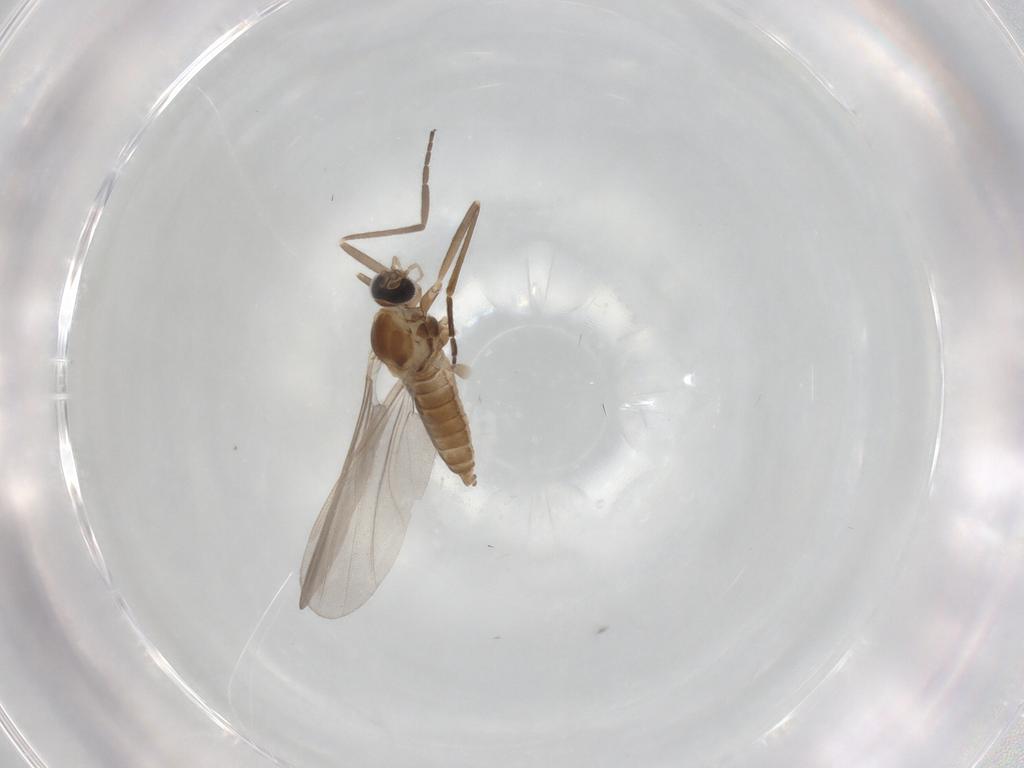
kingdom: Animalia
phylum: Arthropoda
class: Insecta
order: Diptera
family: Cecidomyiidae
